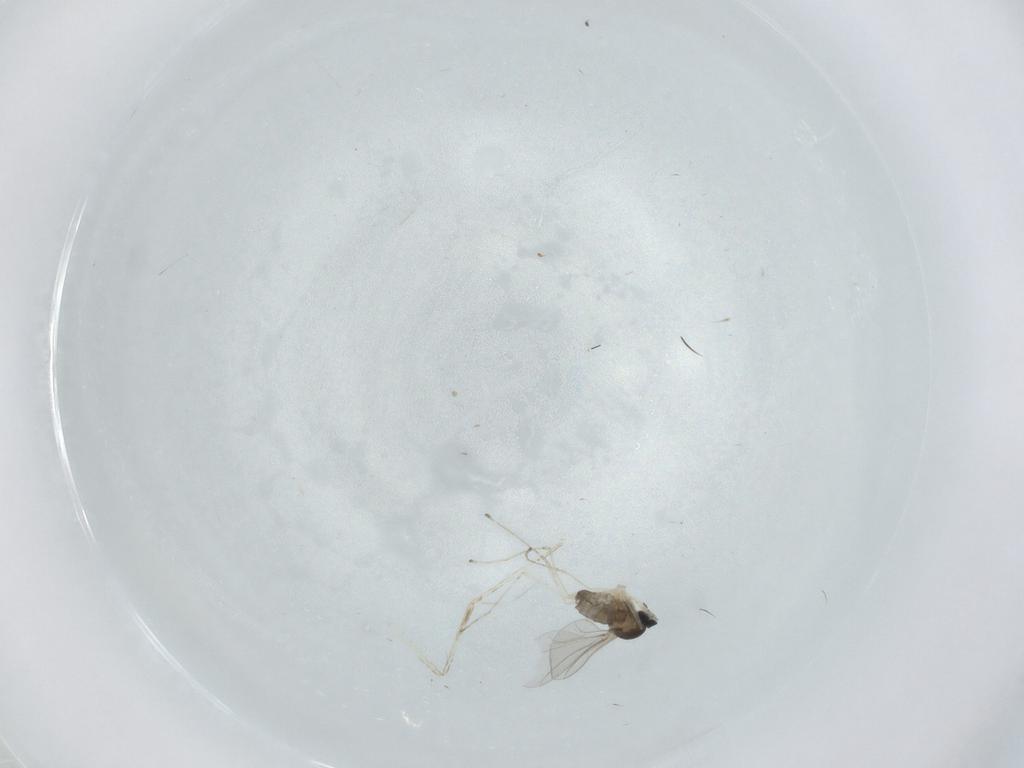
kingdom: Animalia
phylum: Arthropoda
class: Insecta
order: Diptera
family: Cecidomyiidae
